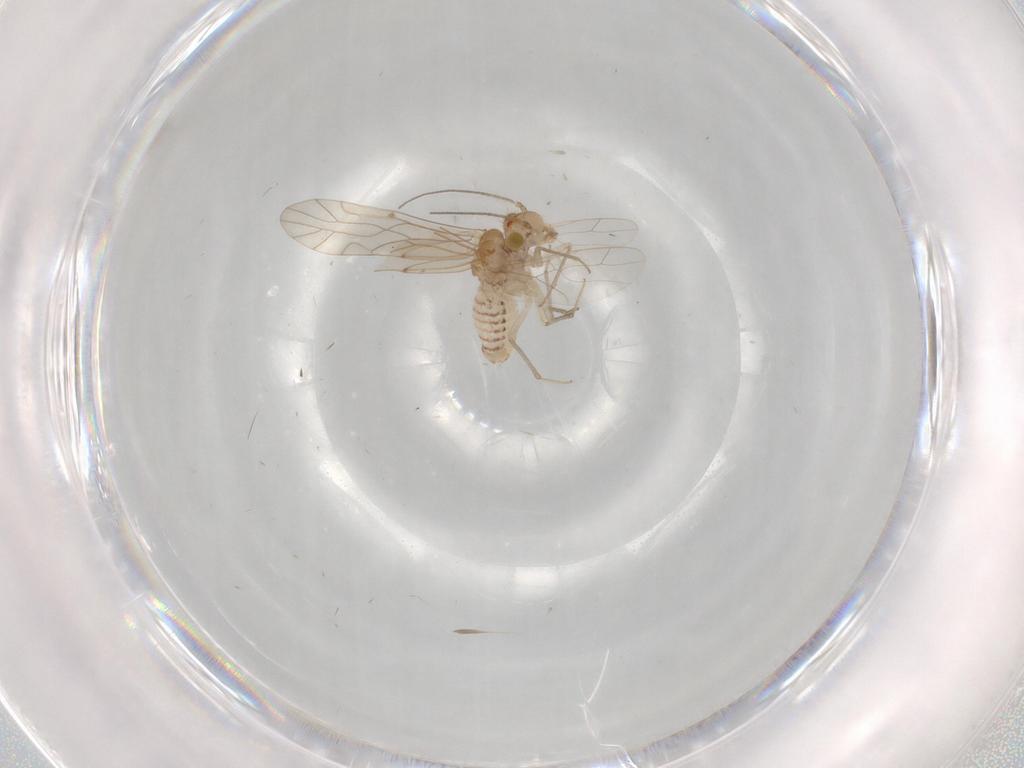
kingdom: Animalia
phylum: Arthropoda
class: Insecta
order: Psocodea
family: Lachesillidae
